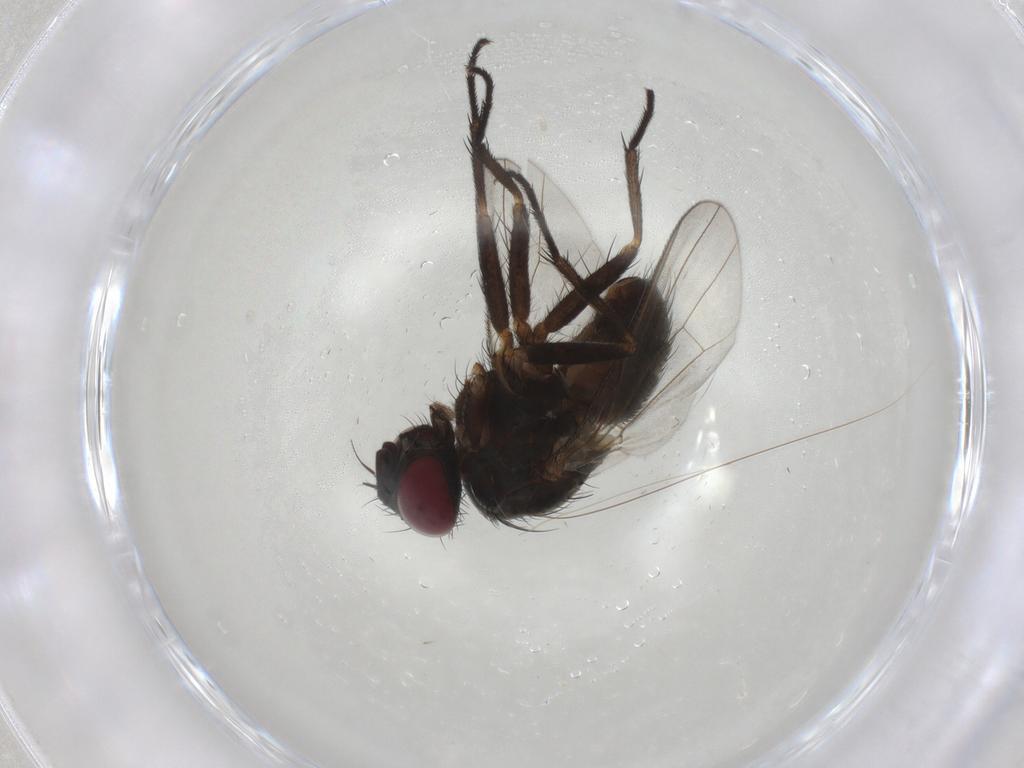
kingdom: Animalia
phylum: Arthropoda
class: Insecta
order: Diptera
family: Muscidae
